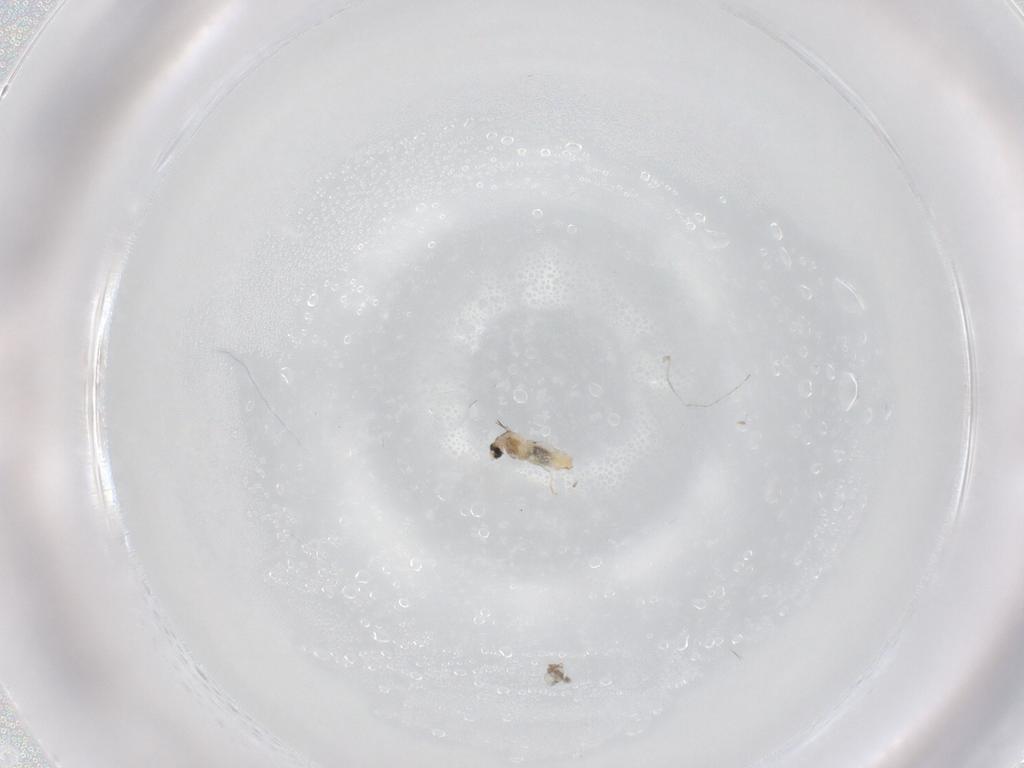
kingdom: Animalia
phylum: Arthropoda
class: Insecta
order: Diptera
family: Chironomidae
